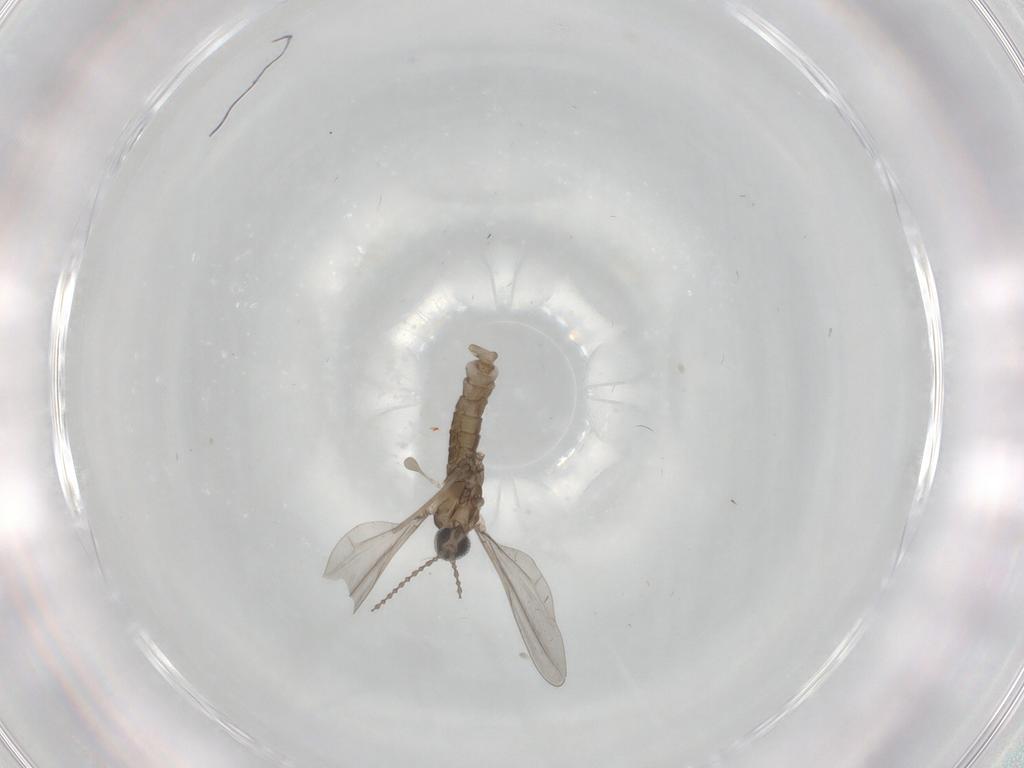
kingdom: Animalia
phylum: Arthropoda
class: Insecta
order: Diptera
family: Cecidomyiidae
